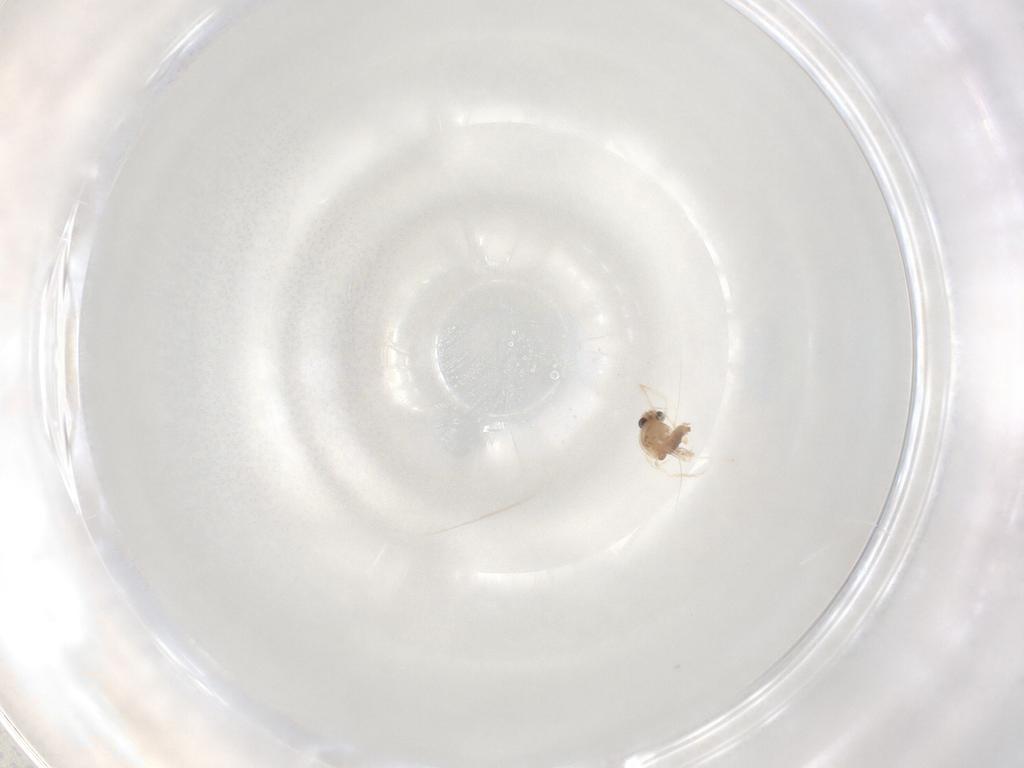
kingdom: Animalia
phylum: Arthropoda
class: Insecta
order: Diptera
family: Chironomidae
